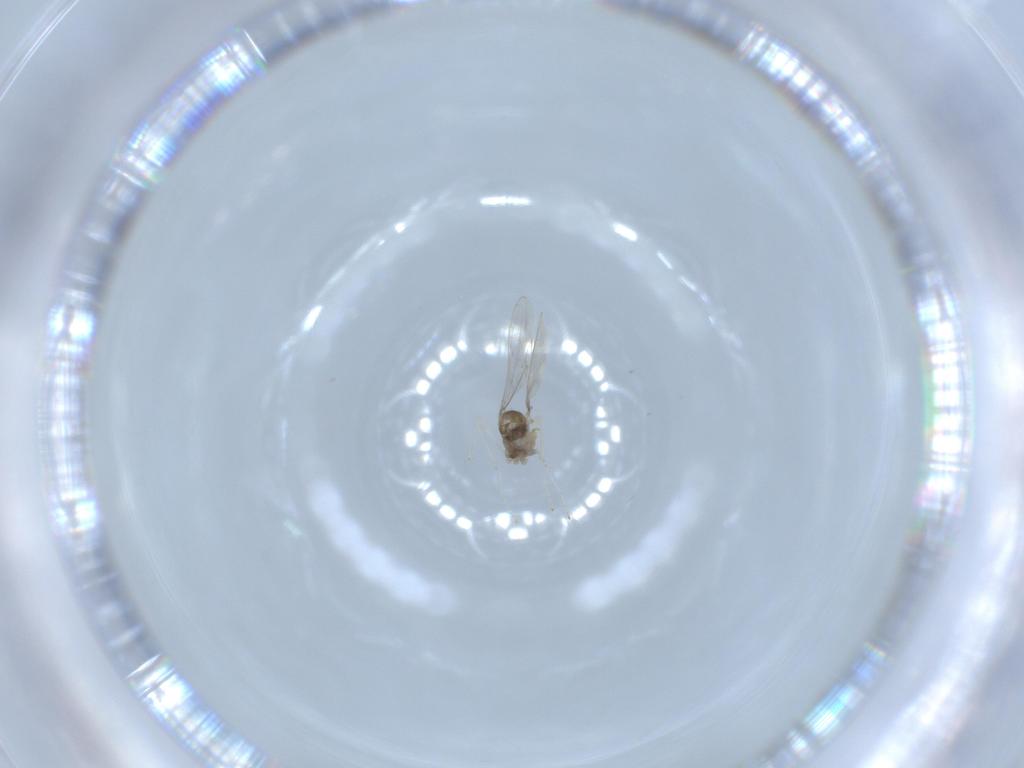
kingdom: Animalia
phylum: Arthropoda
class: Insecta
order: Diptera
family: Cecidomyiidae
